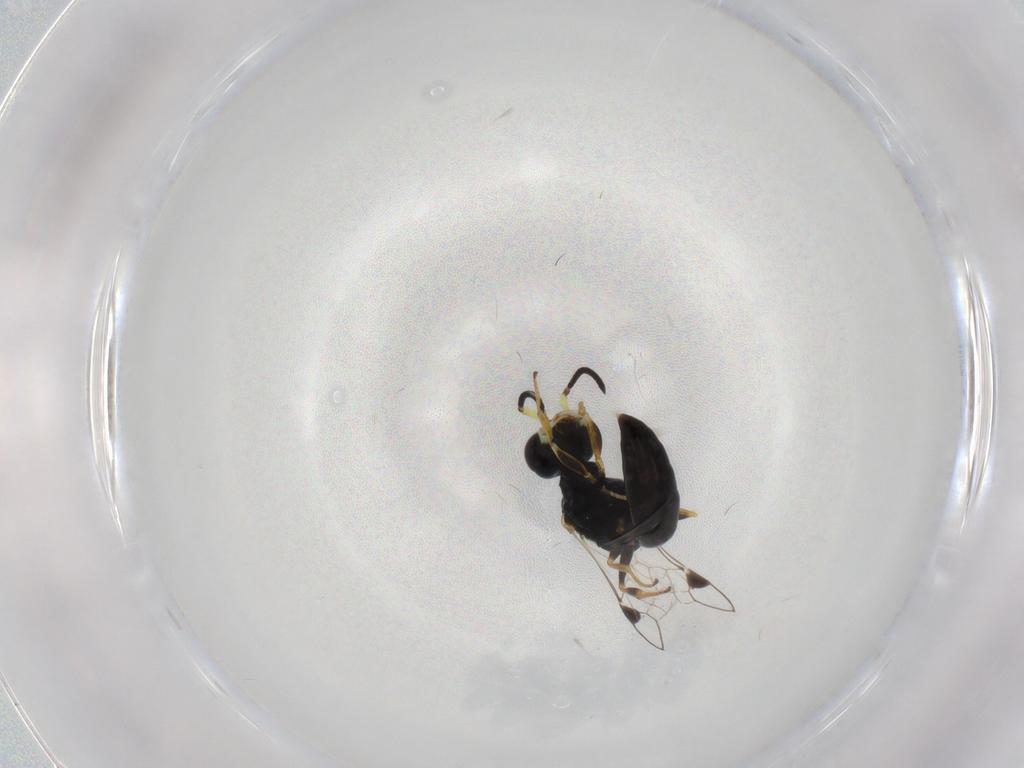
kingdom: Animalia
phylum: Arthropoda
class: Insecta
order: Hymenoptera
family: Crabronidae
